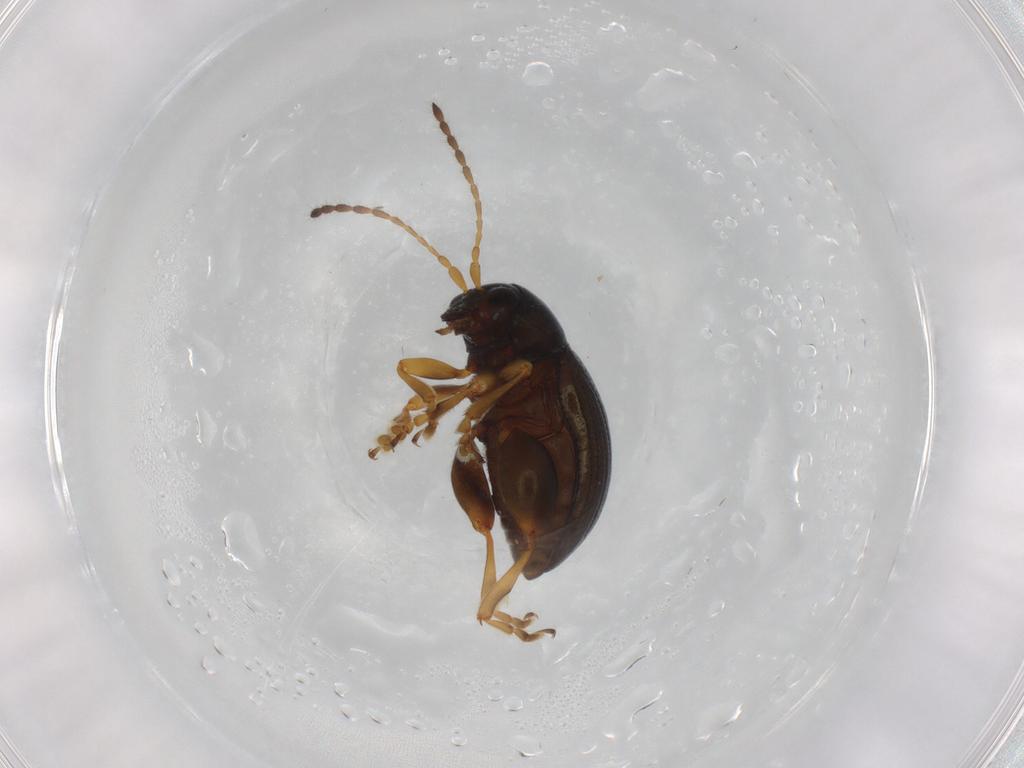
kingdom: Animalia
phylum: Arthropoda
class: Insecta
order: Coleoptera
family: Chrysomelidae
